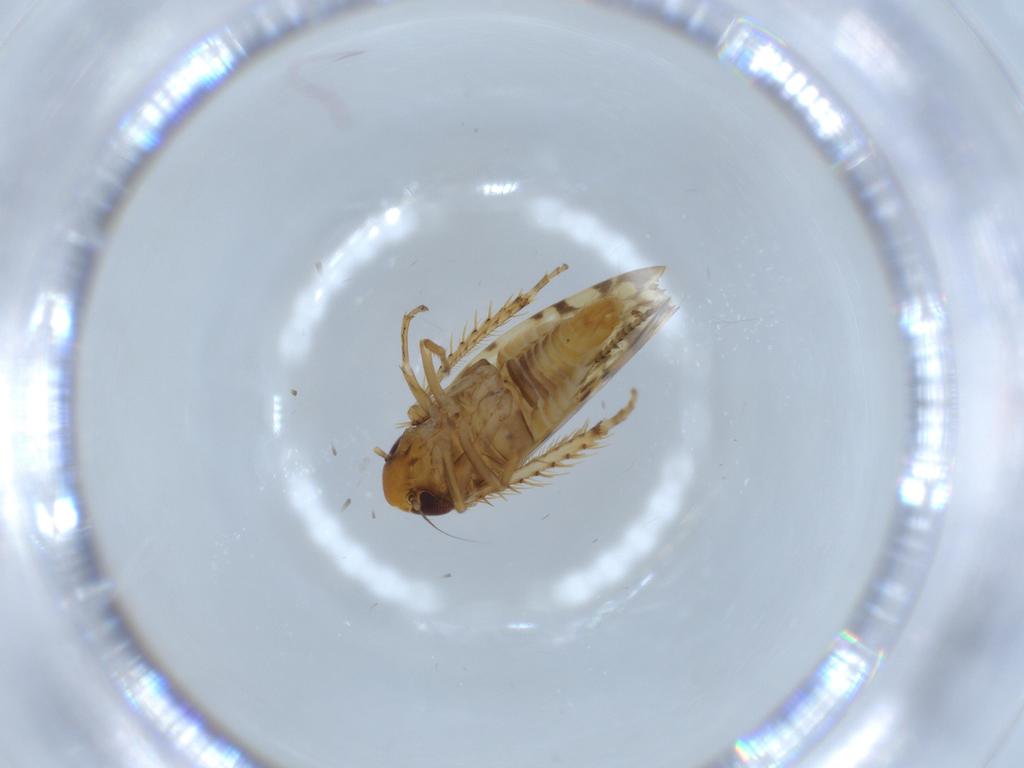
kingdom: Animalia
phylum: Arthropoda
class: Insecta
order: Hemiptera
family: Cicadellidae
